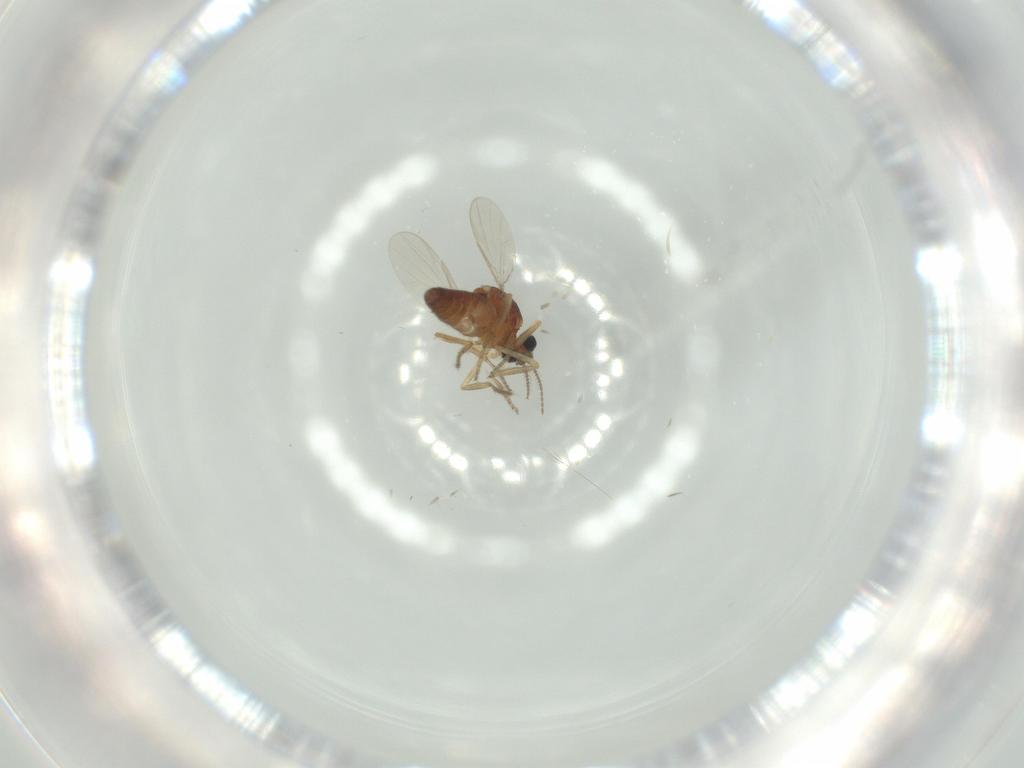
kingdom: Animalia
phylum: Arthropoda
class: Insecta
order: Diptera
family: Ceratopogonidae
